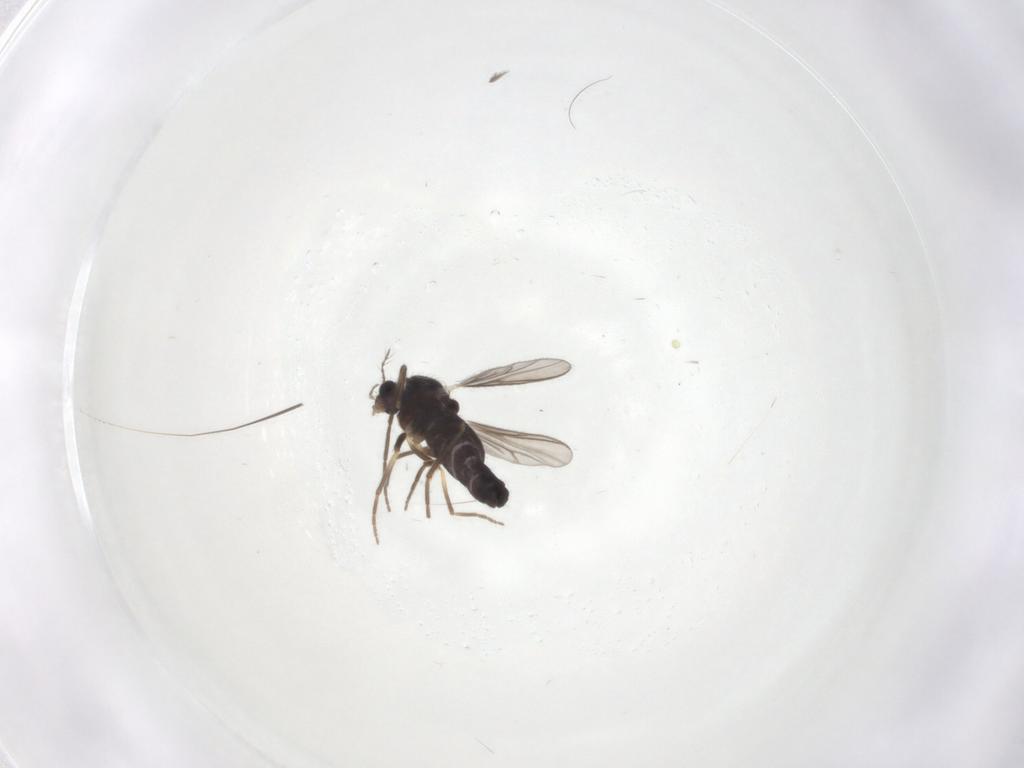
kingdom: Animalia
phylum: Arthropoda
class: Insecta
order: Diptera
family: Chironomidae
